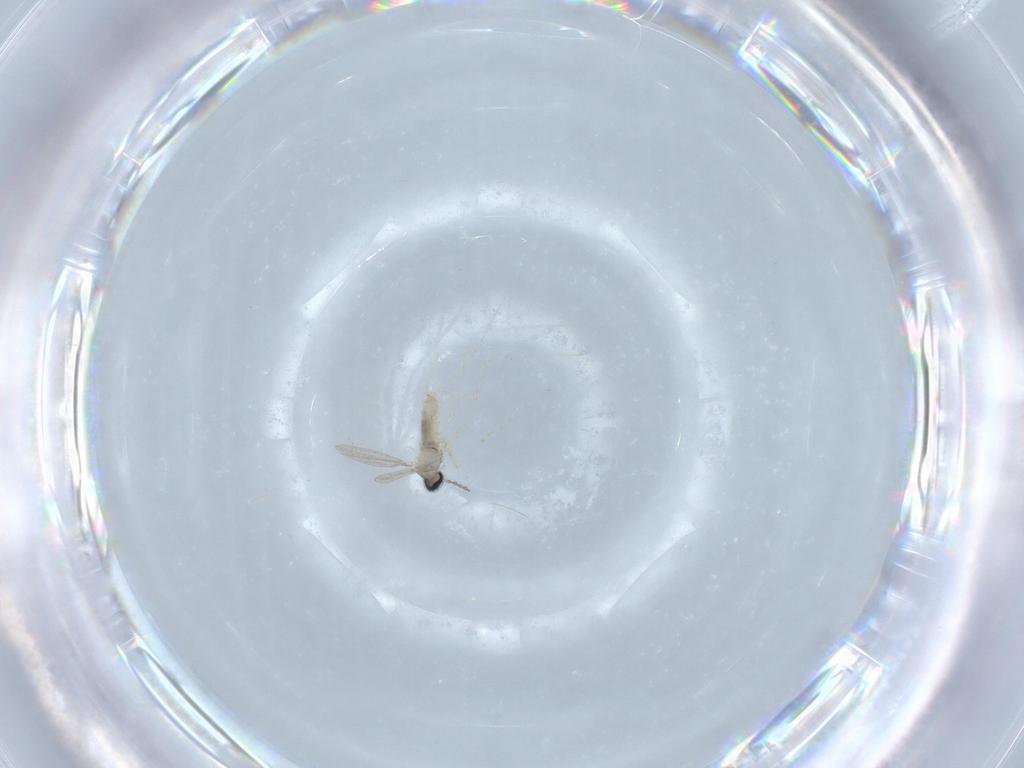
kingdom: Animalia
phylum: Arthropoda
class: Insecta
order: Diptera
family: Cecidomyiidae
